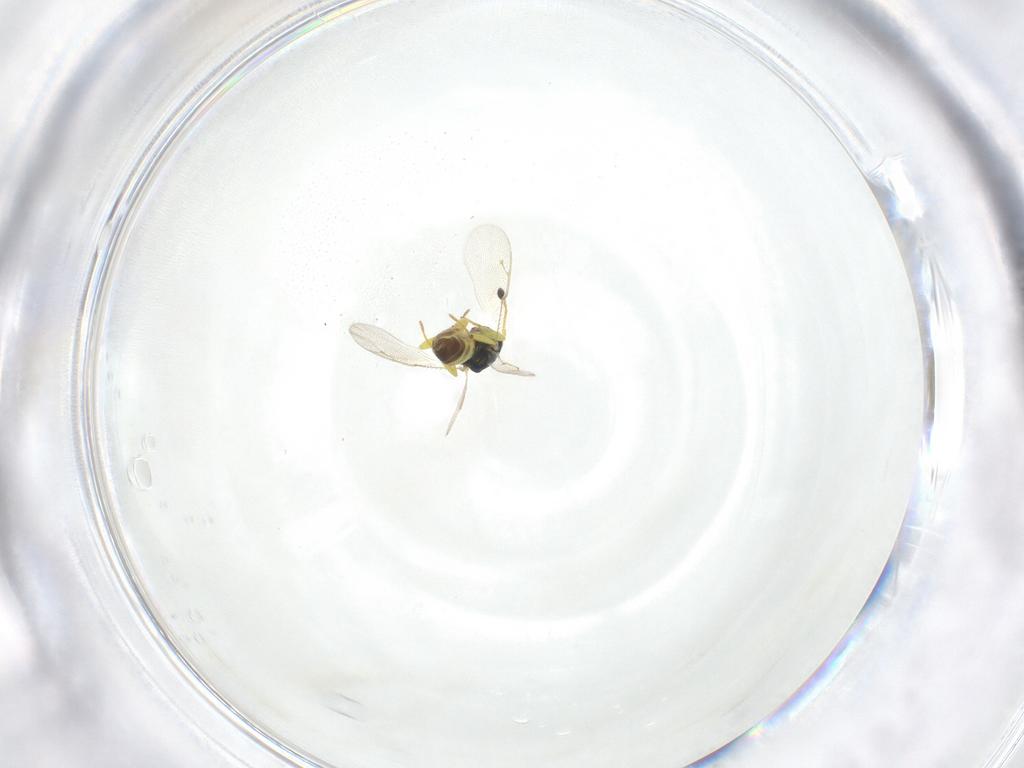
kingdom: Animalia
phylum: Arthropoda
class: Insecta
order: Hymenoptera
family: Pteromalidae
